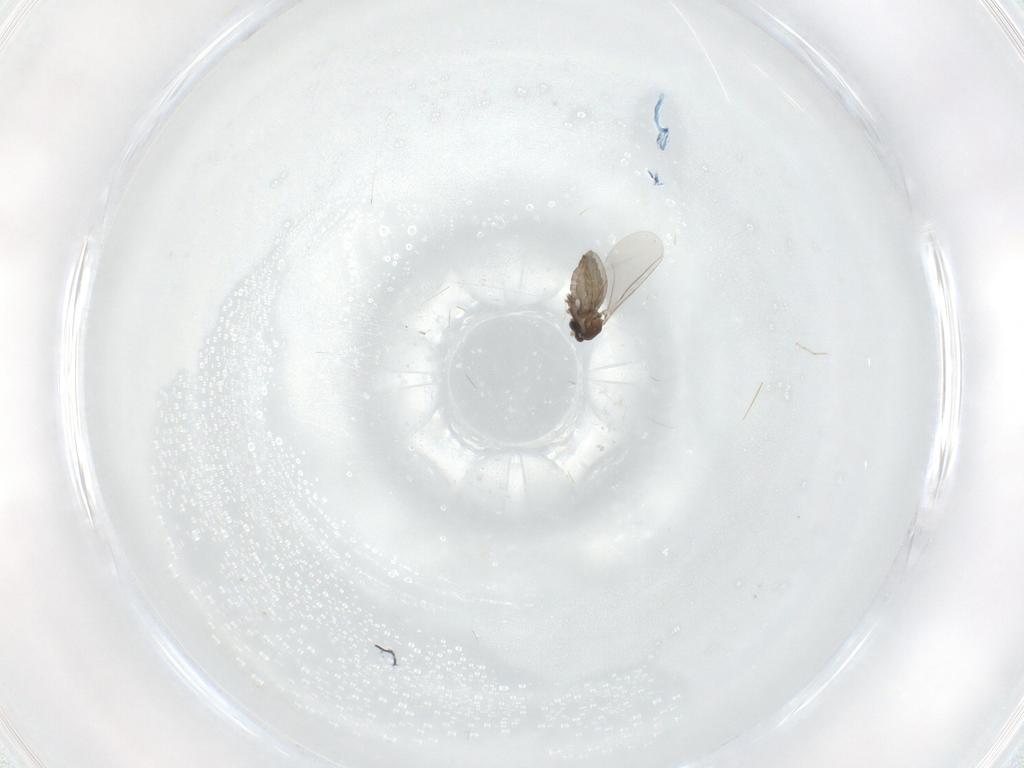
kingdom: Animalia
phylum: Arthropoda
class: Insecta
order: Diptera
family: Cecidomyiidae
